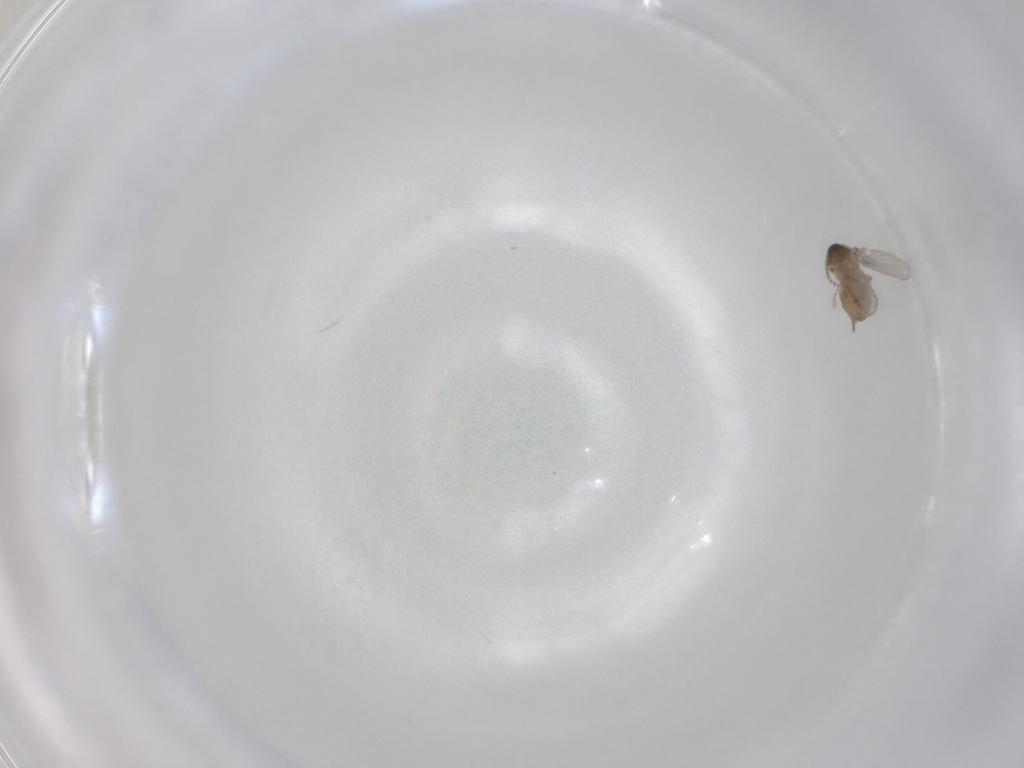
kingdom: Animalia
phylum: Arthropoda
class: Insecta
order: Diptera
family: Psychodidae
